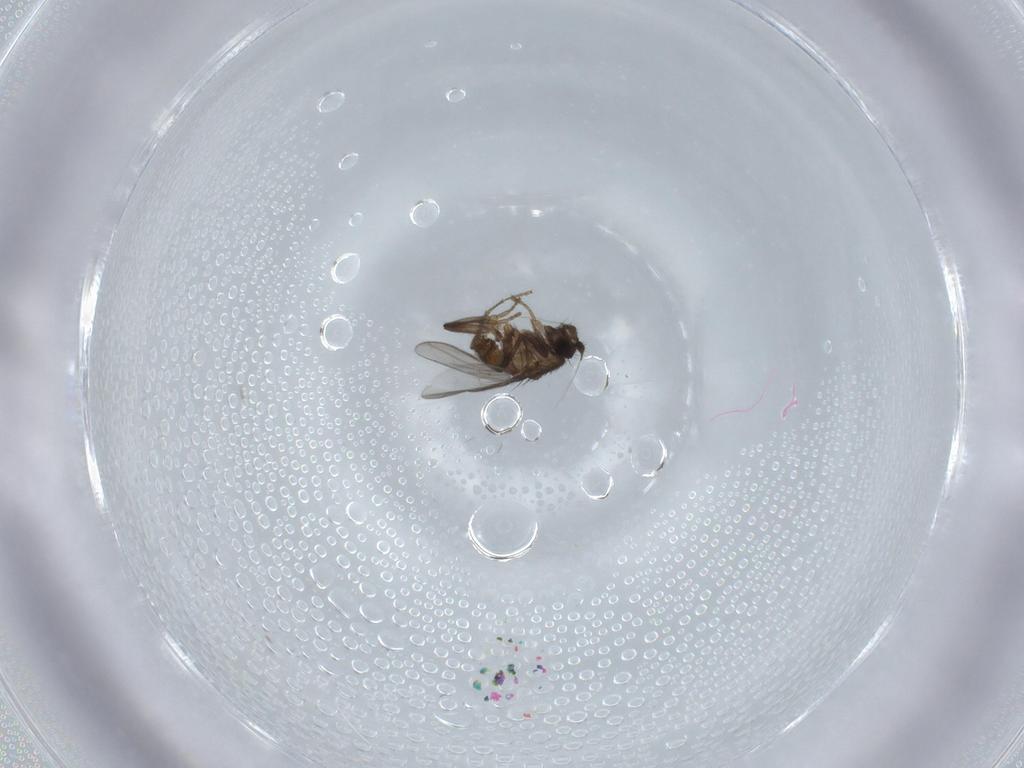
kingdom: Animalia
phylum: Arthropoda
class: Insecta
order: Diptera
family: Sphaeroceridae
